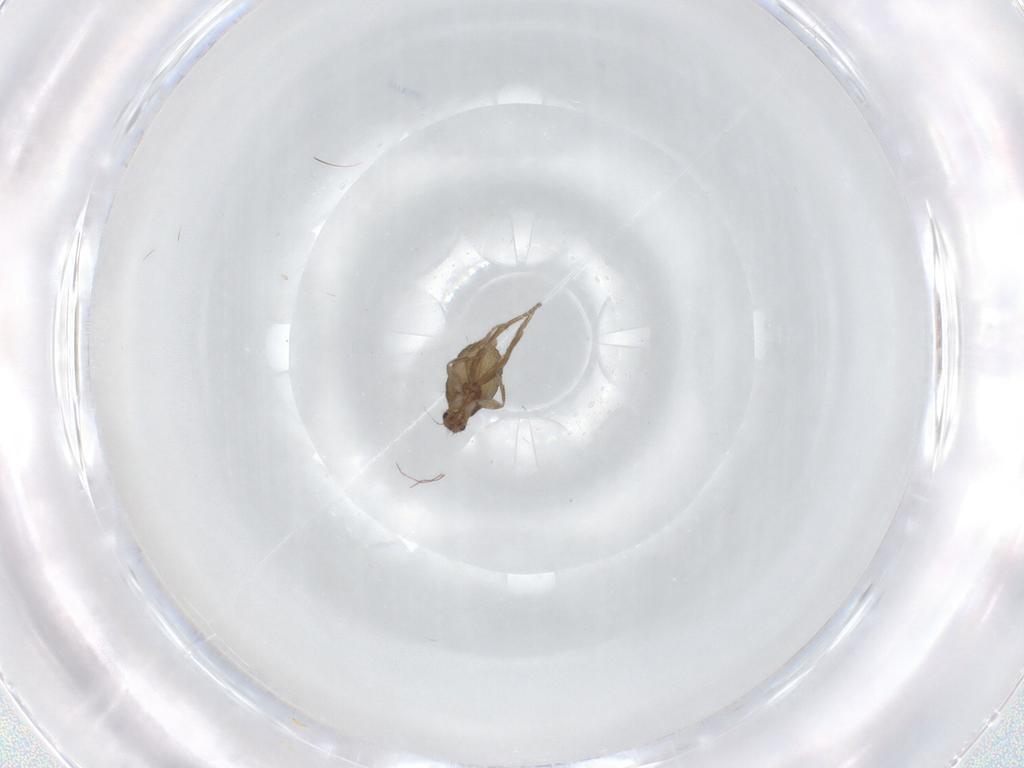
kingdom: Animalia
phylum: Arthropoda
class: Insecta
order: Diptera
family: Phoridae
